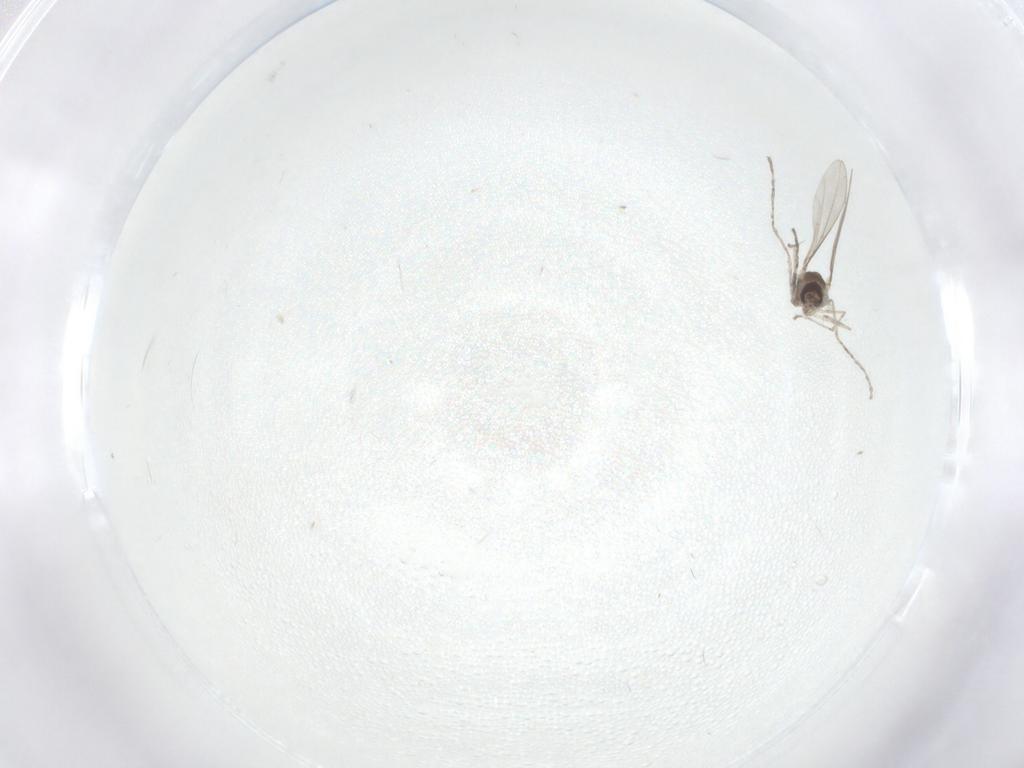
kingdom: Animalia
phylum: Arthropoda
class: Insecta
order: Diptera
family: Cecidomyiidae
